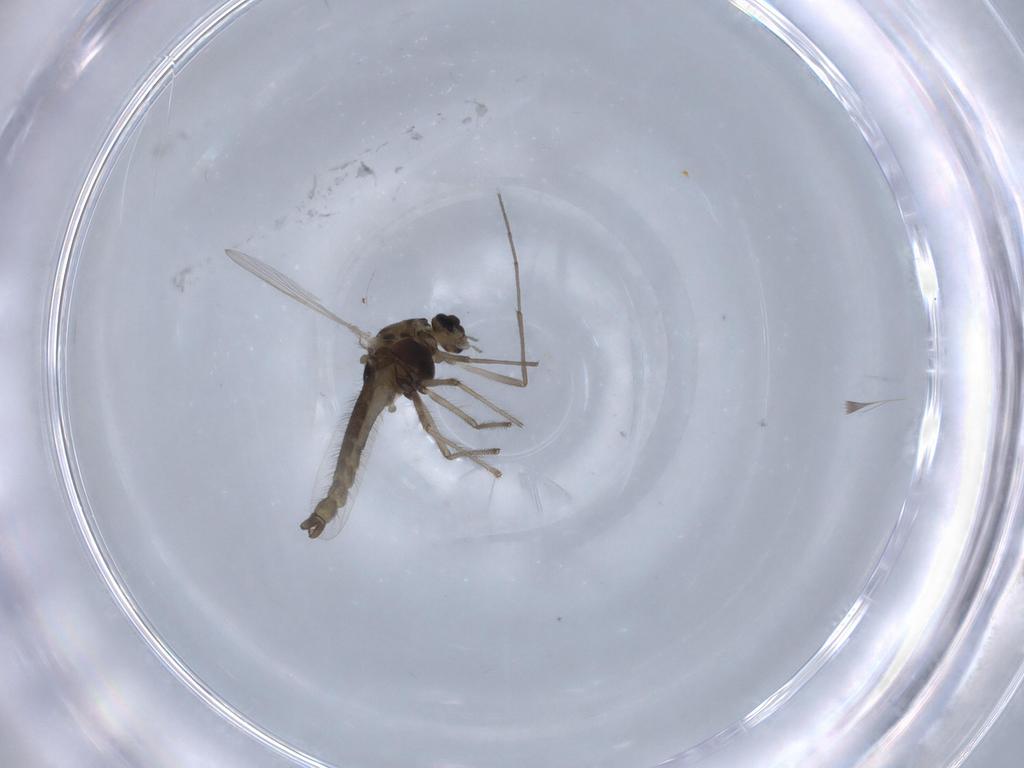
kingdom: Animalia
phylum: Arthropoda
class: Insecta
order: Diptera
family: Chironomidae
